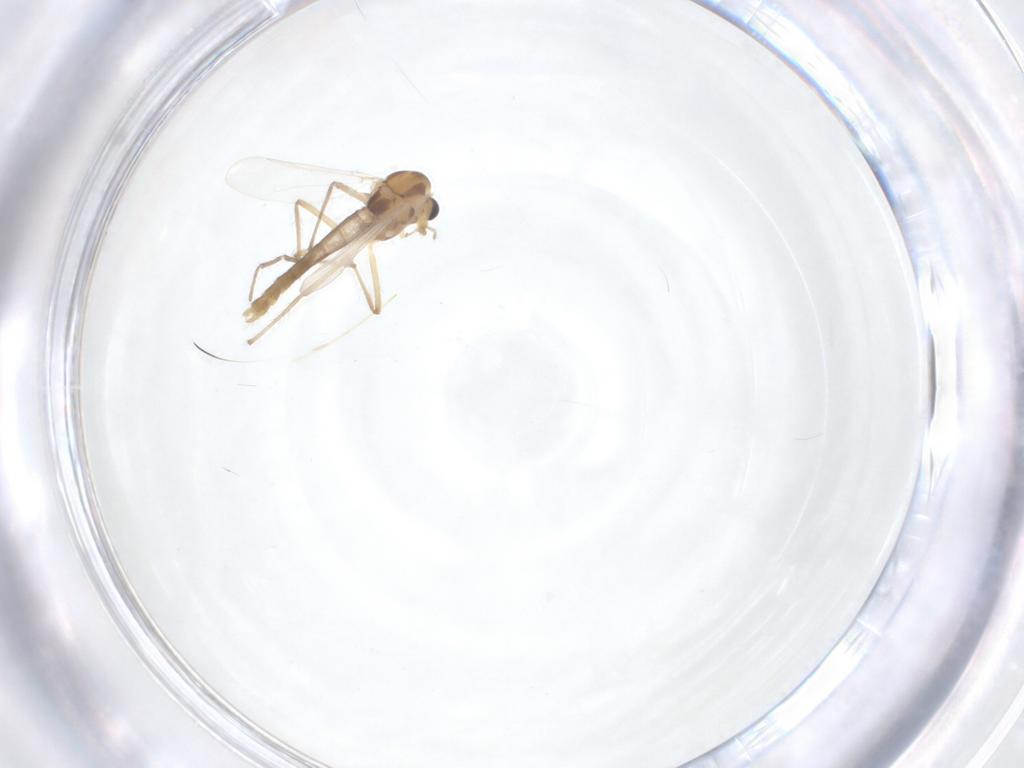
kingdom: Animalia
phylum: Arthropoda
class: Insecta
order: Diptera
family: Chironomidae
